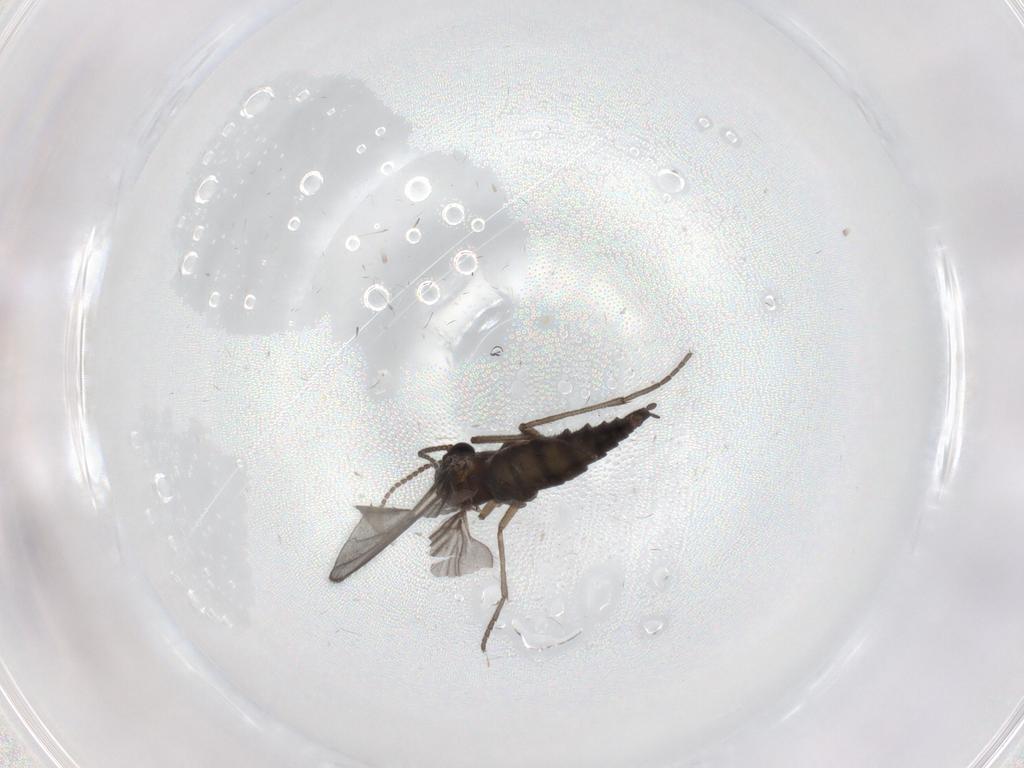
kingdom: Animalia
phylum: Arthropoda
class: Insecta
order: Diptera
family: Sciaridae
